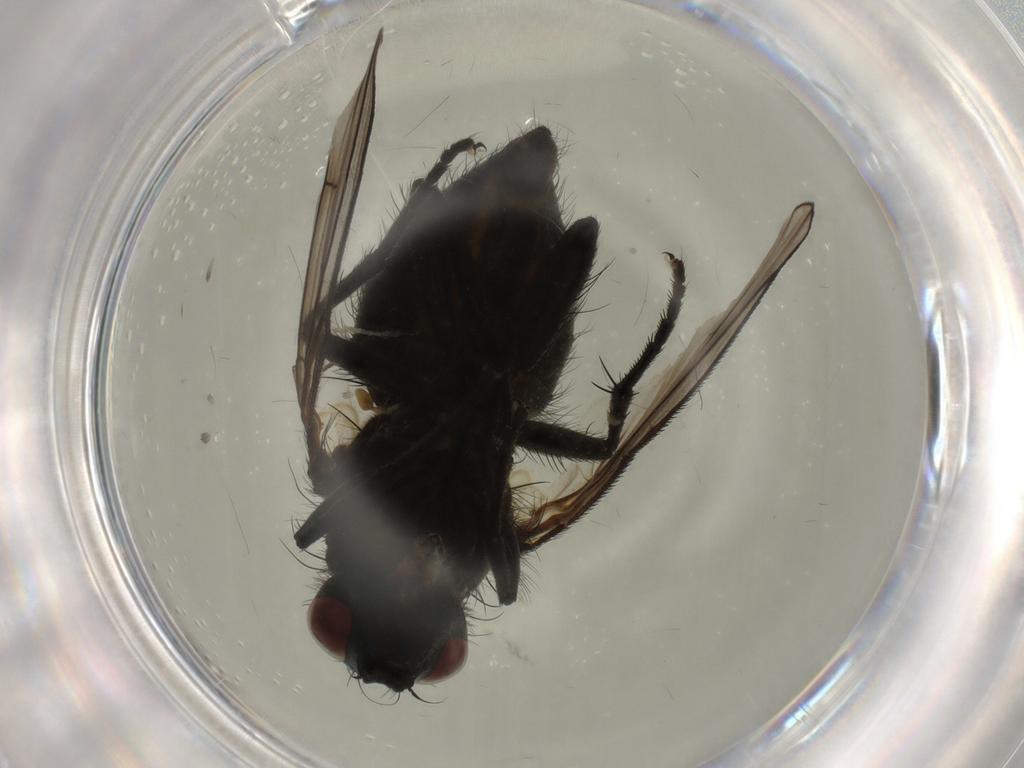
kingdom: Animalia
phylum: Arthropoda
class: Insecta
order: Diptera
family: Muscidae
